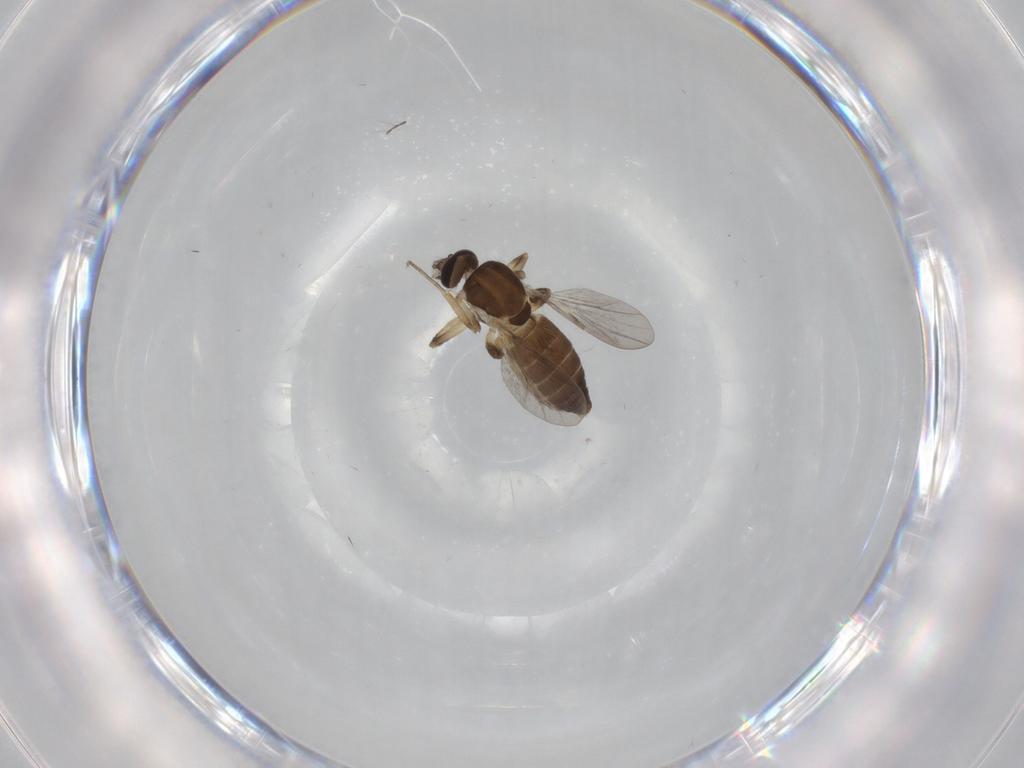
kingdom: Animalia
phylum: Arthropoda
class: Insecta
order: Diptera
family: Ceratopogonidae
